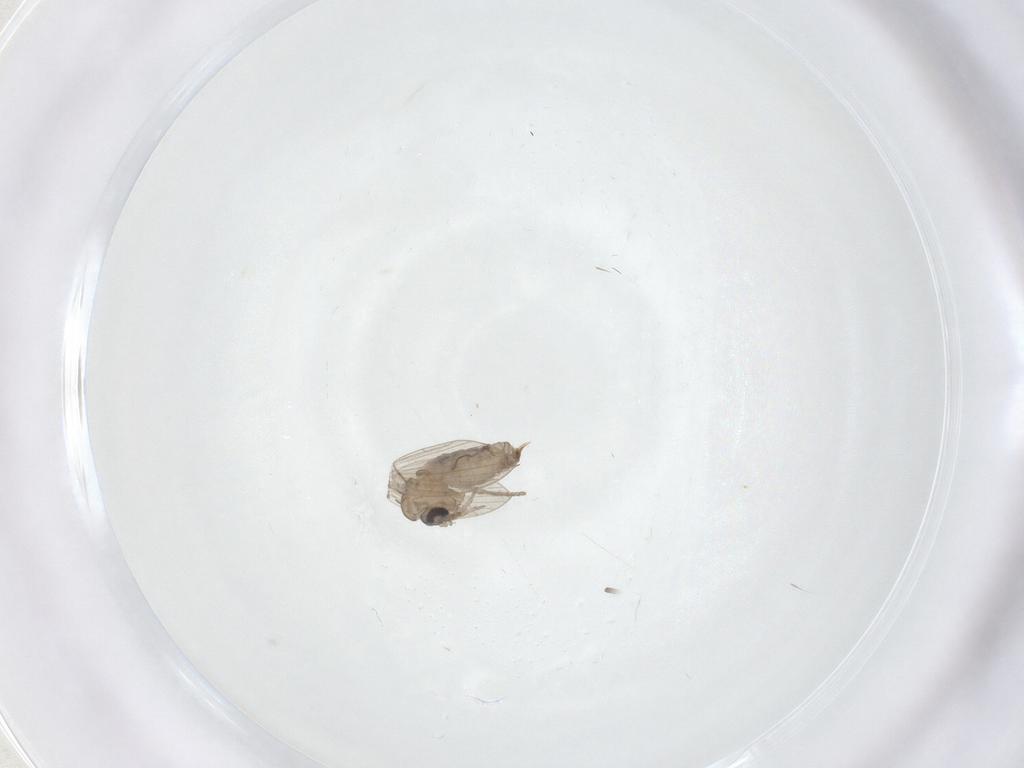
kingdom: Animalia
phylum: Arthropoda
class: Insecta
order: Diptera
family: Psychodidae
